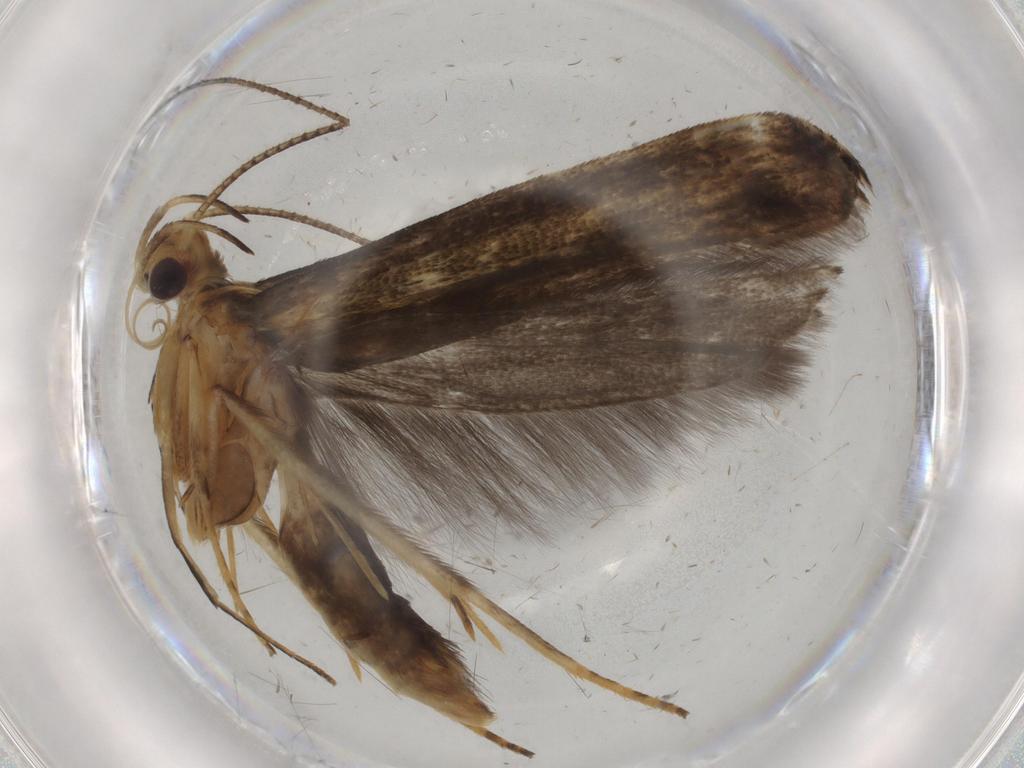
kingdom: Animalia
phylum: Arthropoda
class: Insecta
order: Lepidoptera
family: Gelechiidae
